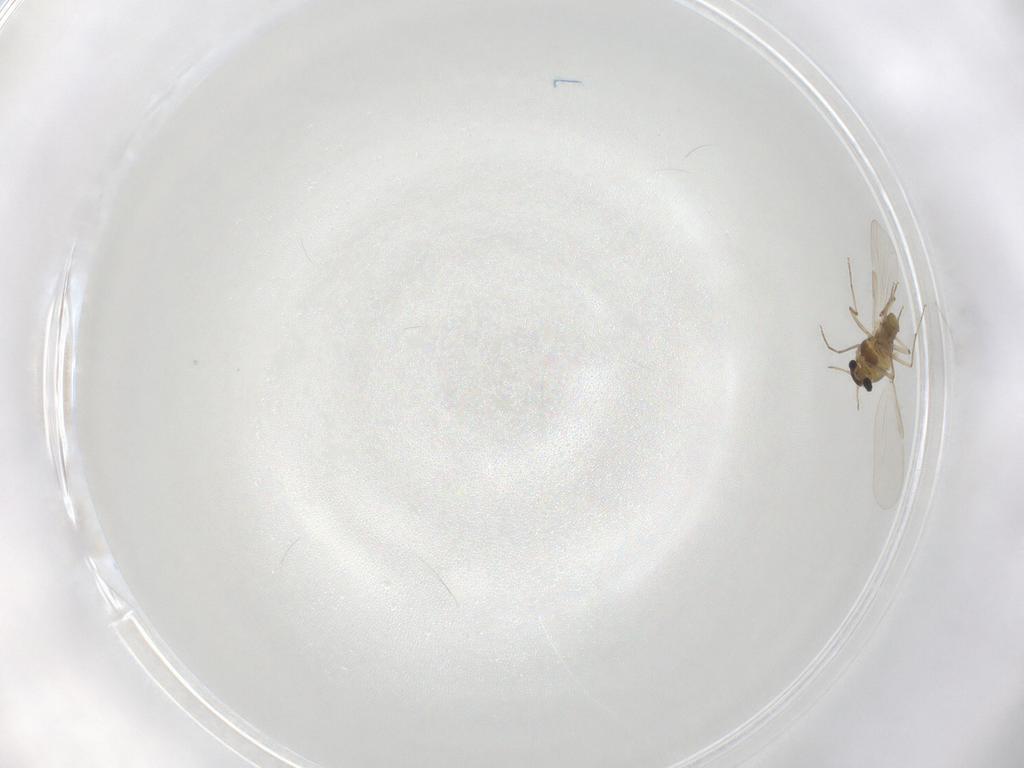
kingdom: Animalia
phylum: Arthropoda
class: Insecta
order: Diptera
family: Chironomidae
